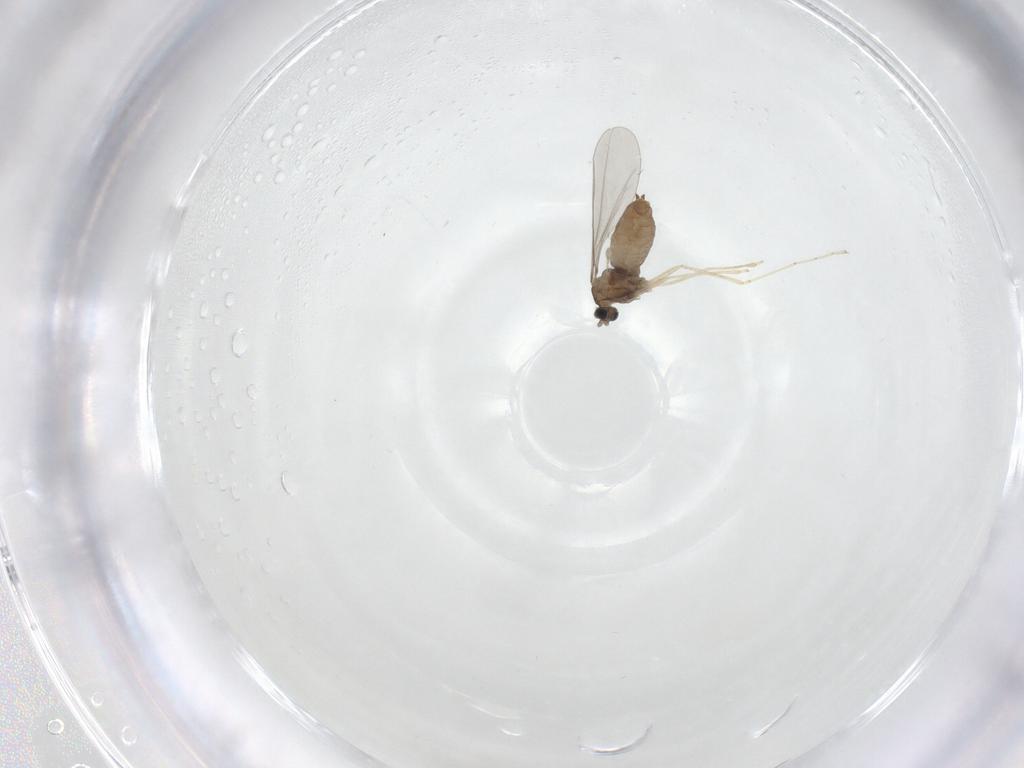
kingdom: Animalia
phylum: Arthropoda
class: Insecta
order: Diptera
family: Cecidomyiidae
